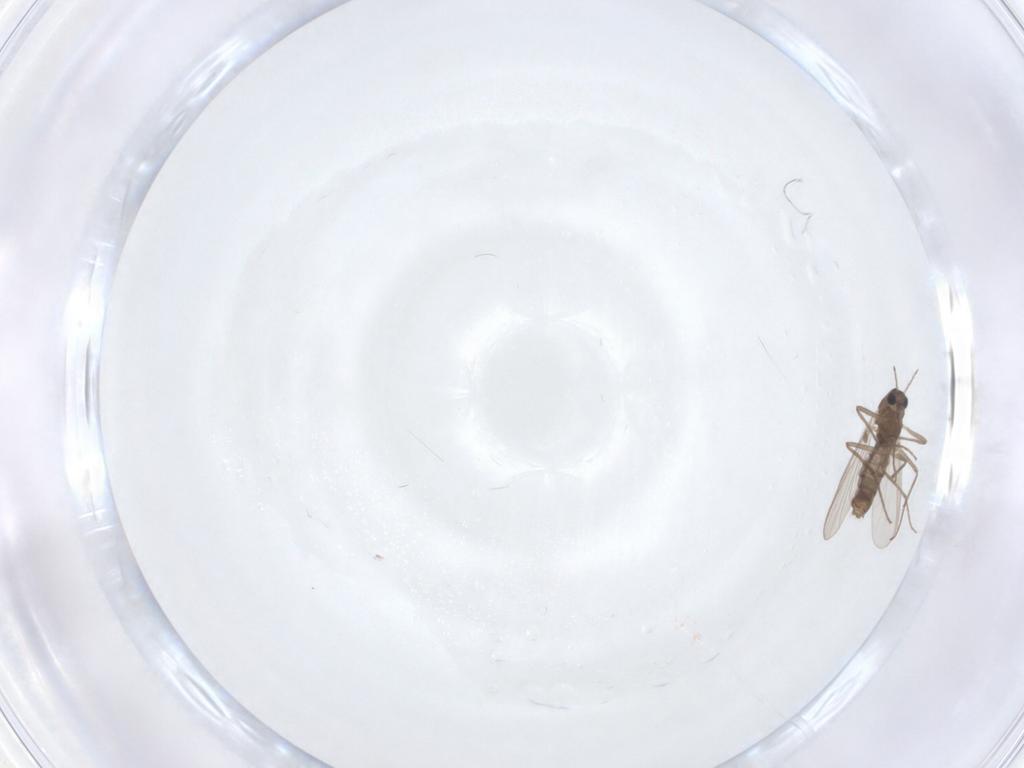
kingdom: Animalia
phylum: Arthropoda
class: Insecta
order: Diptera
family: Chironomidae
